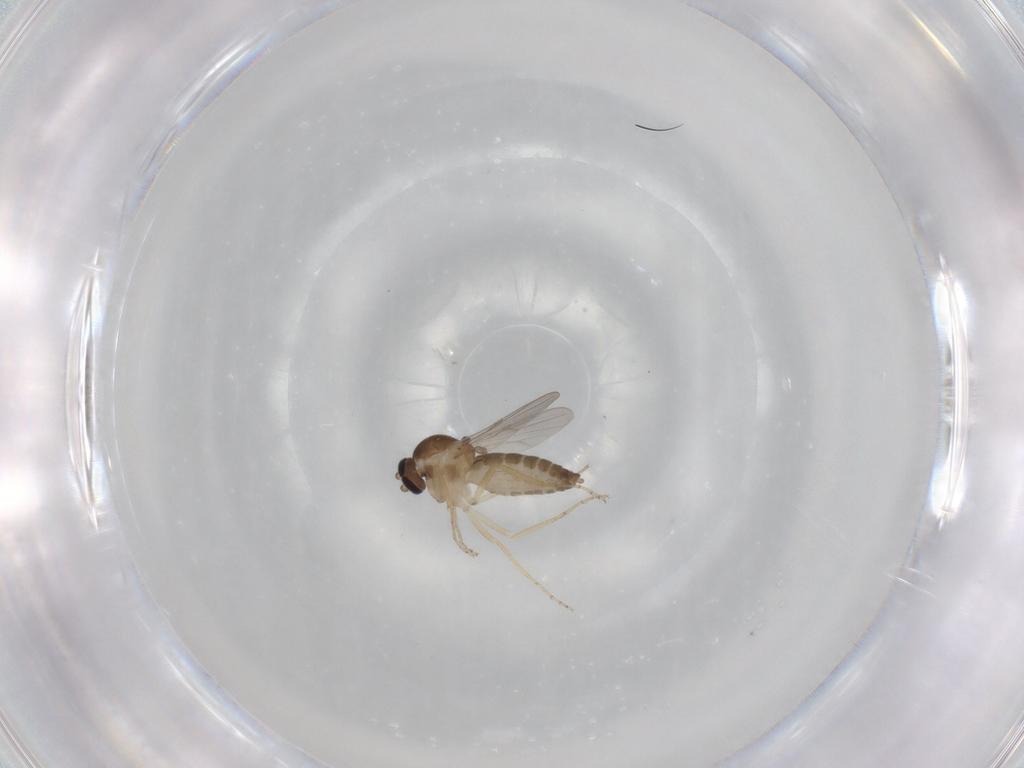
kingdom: Animalia
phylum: Arthropoda
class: Insecta
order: Diptera
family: Ceratopogonidae
